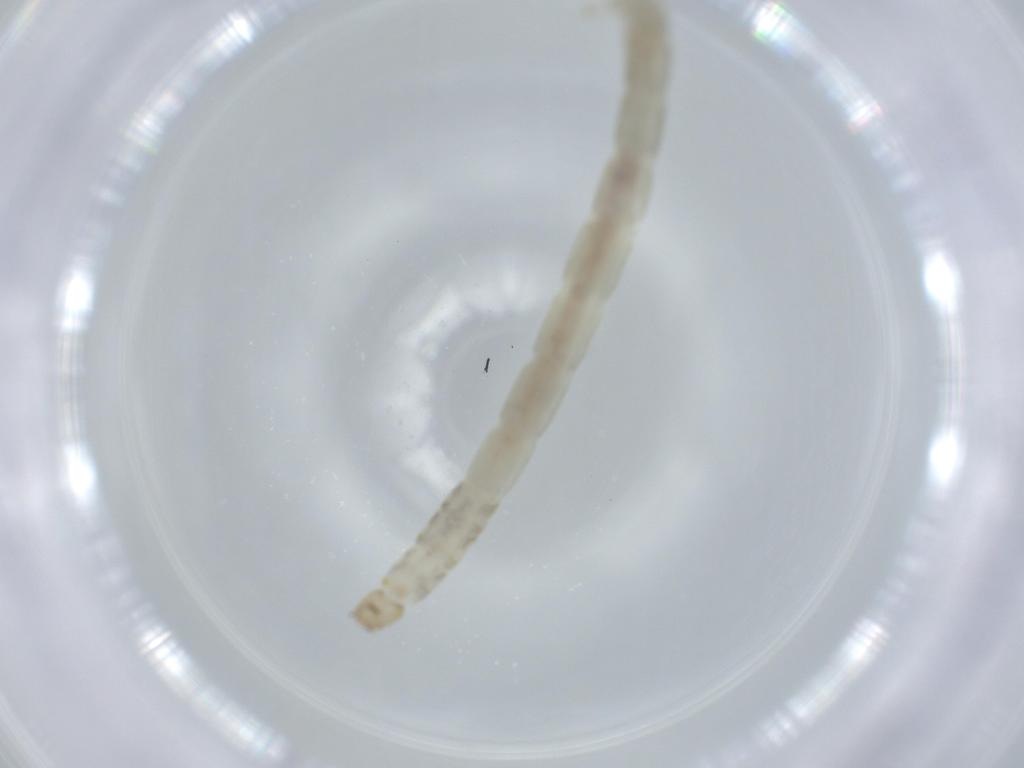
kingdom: Animalia
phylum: Arthropoda
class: Insecta
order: Diptera
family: Chironomidae
